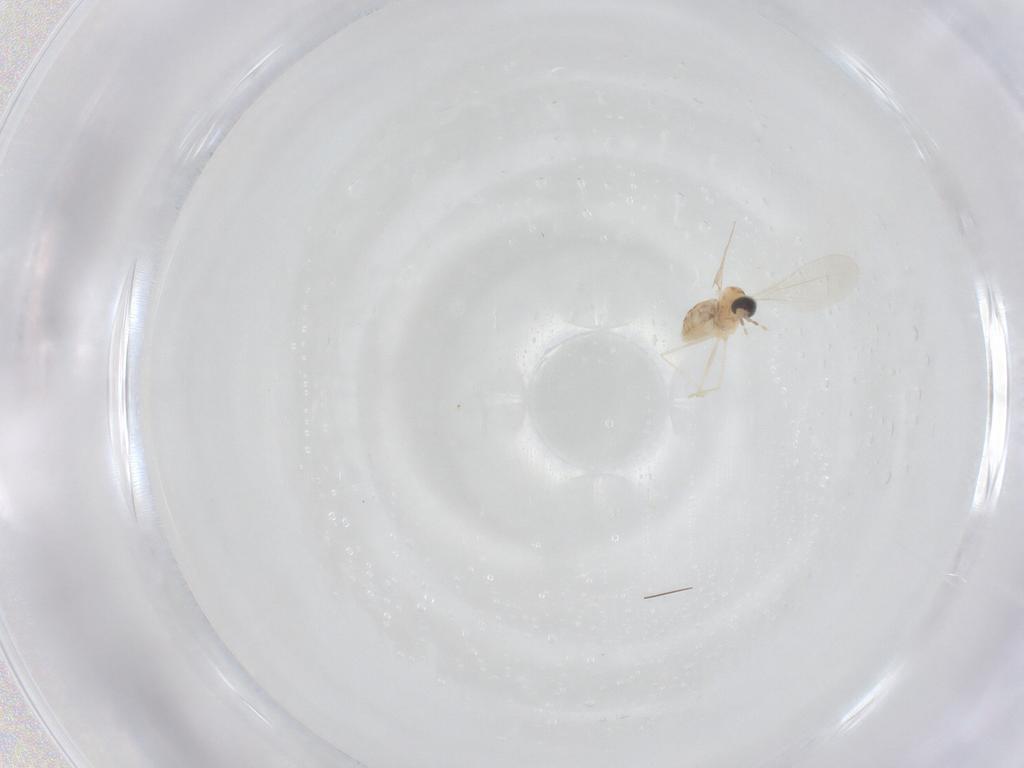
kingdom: Animalia
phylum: Arthropoda
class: Insecta
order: Diptera
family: Cecidomyiidae
